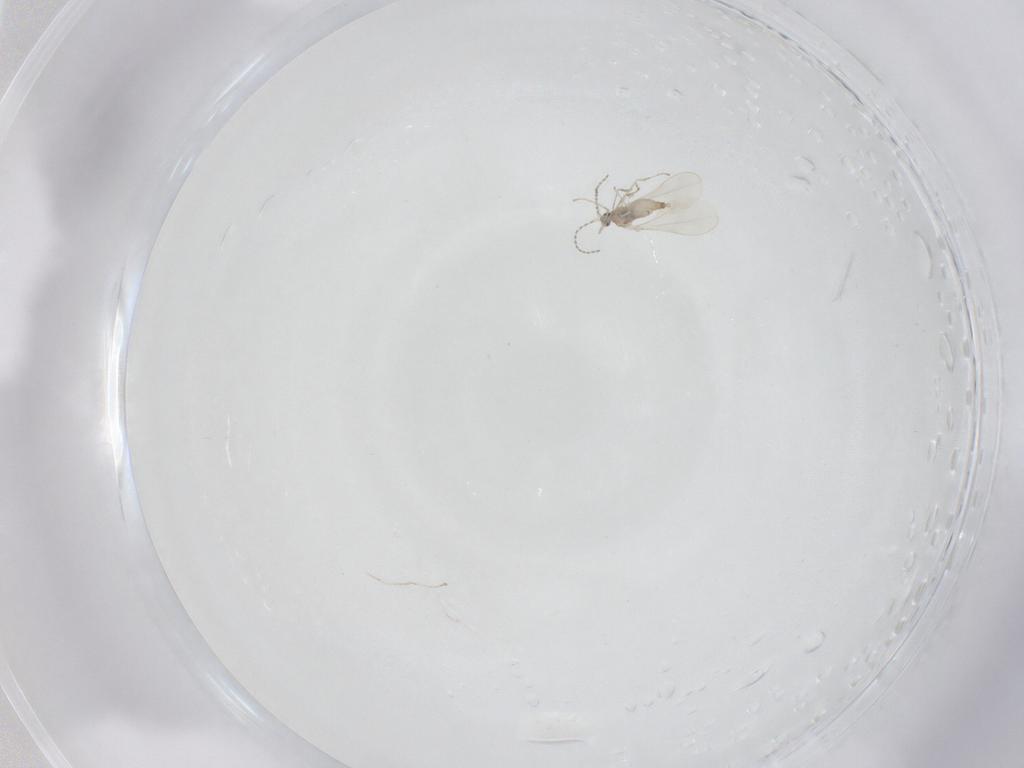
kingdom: Animalia
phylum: Arthropoda
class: Insecta
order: Diptera
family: Cecidomyiidae
